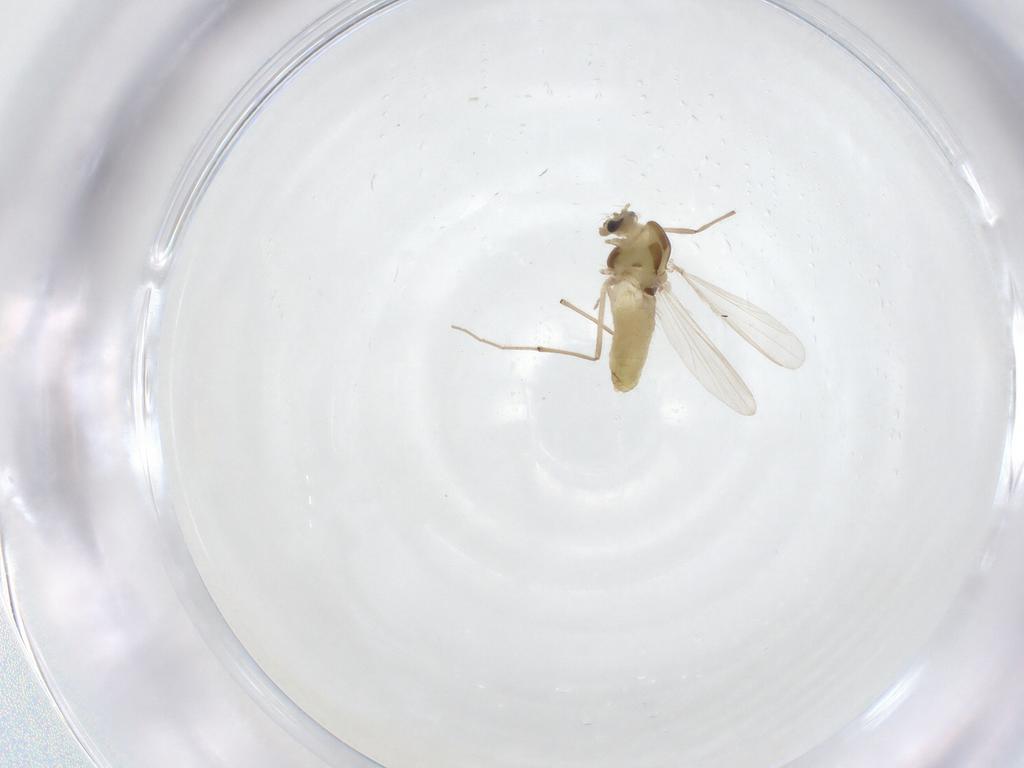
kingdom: Animalia
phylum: Arthropoda
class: Insecta
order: Diptera
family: Chironomidae
